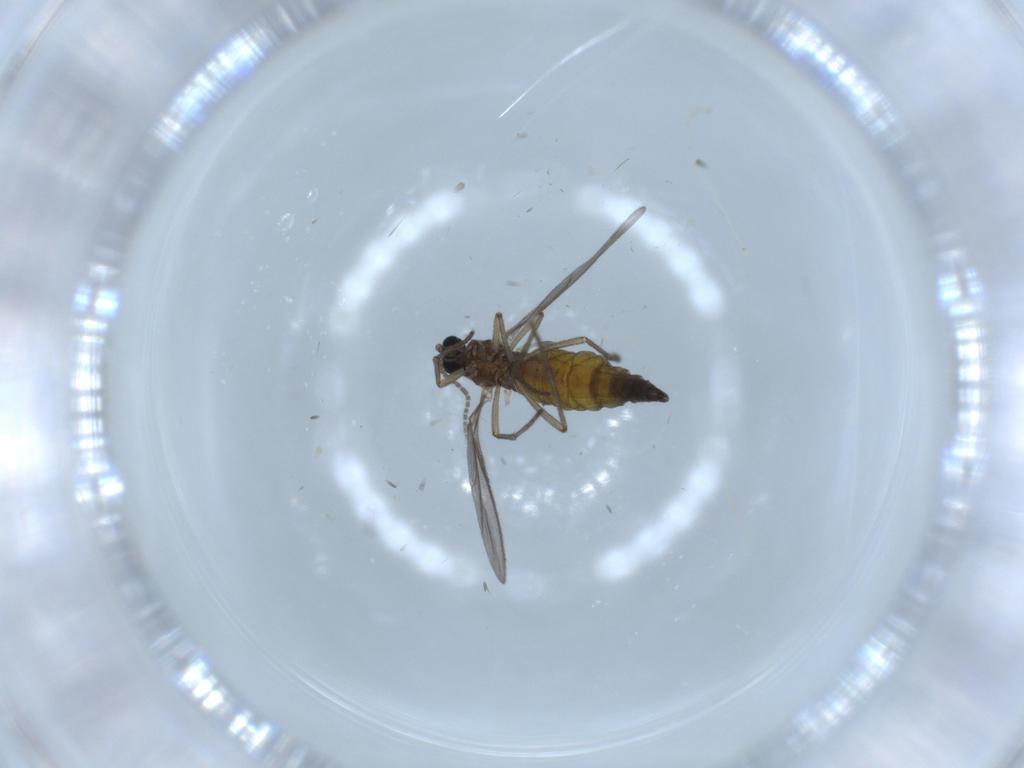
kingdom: Animalia
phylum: Arthropoda
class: Insecta
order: Diptera
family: Sciaridae
